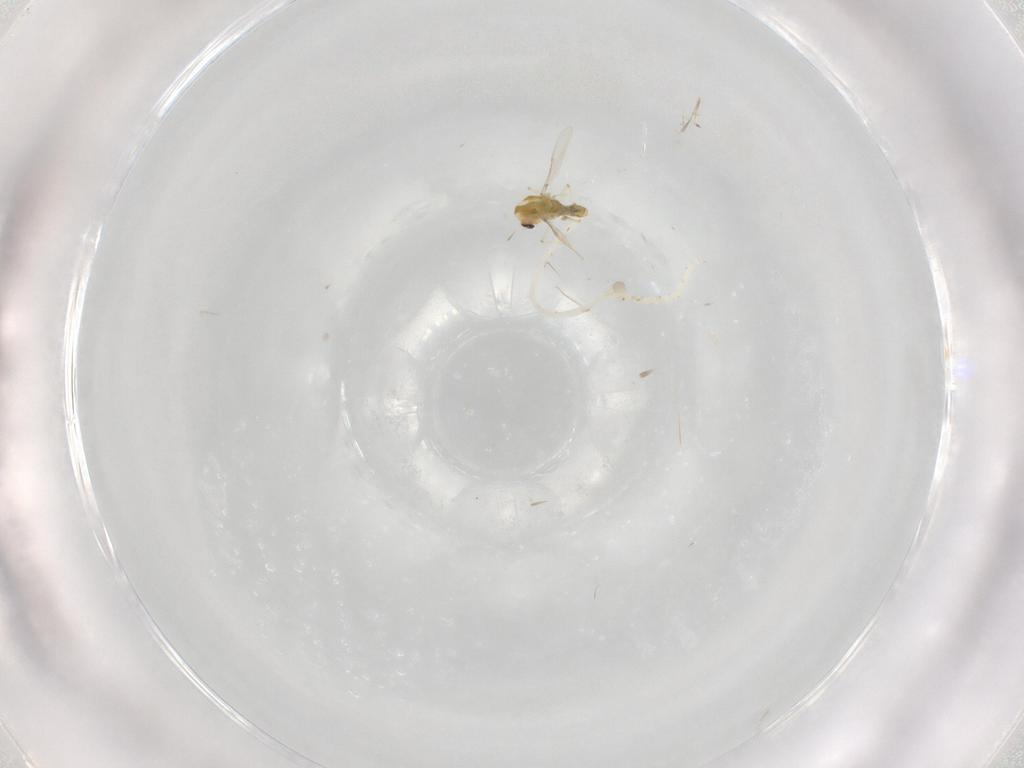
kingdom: Animalia
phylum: Arthropoda
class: Insecta
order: Diptera
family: Chironomidae
